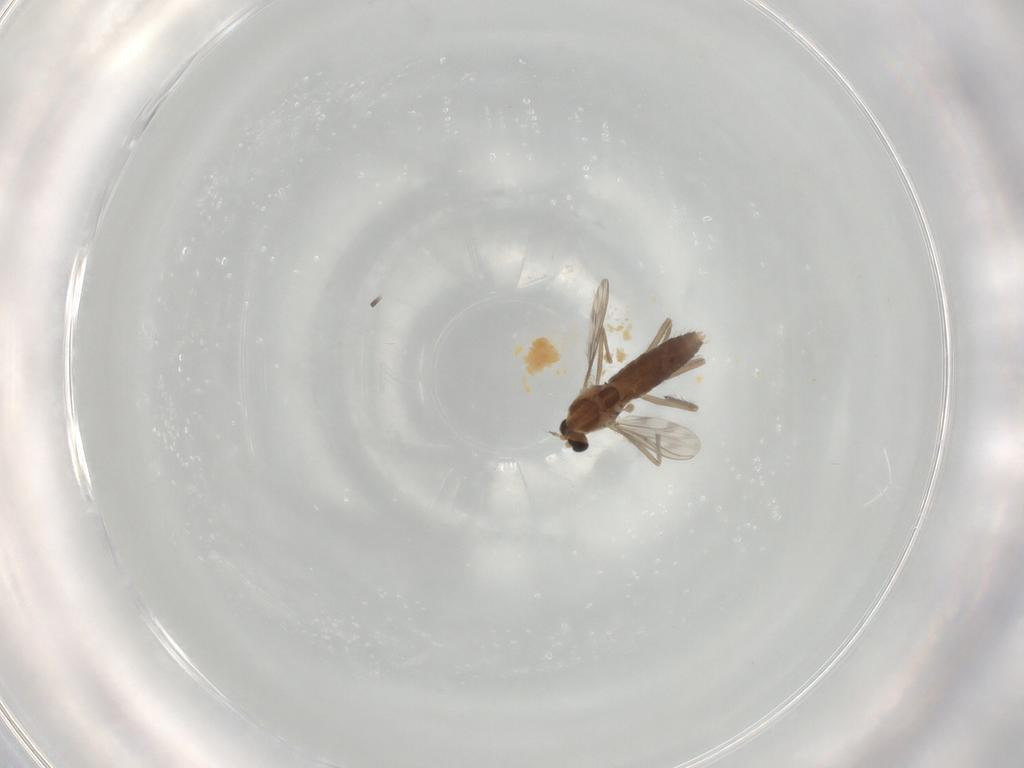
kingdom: Animalia
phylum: Arthropoda
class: Insecta
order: Diptera
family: Chironomidae
